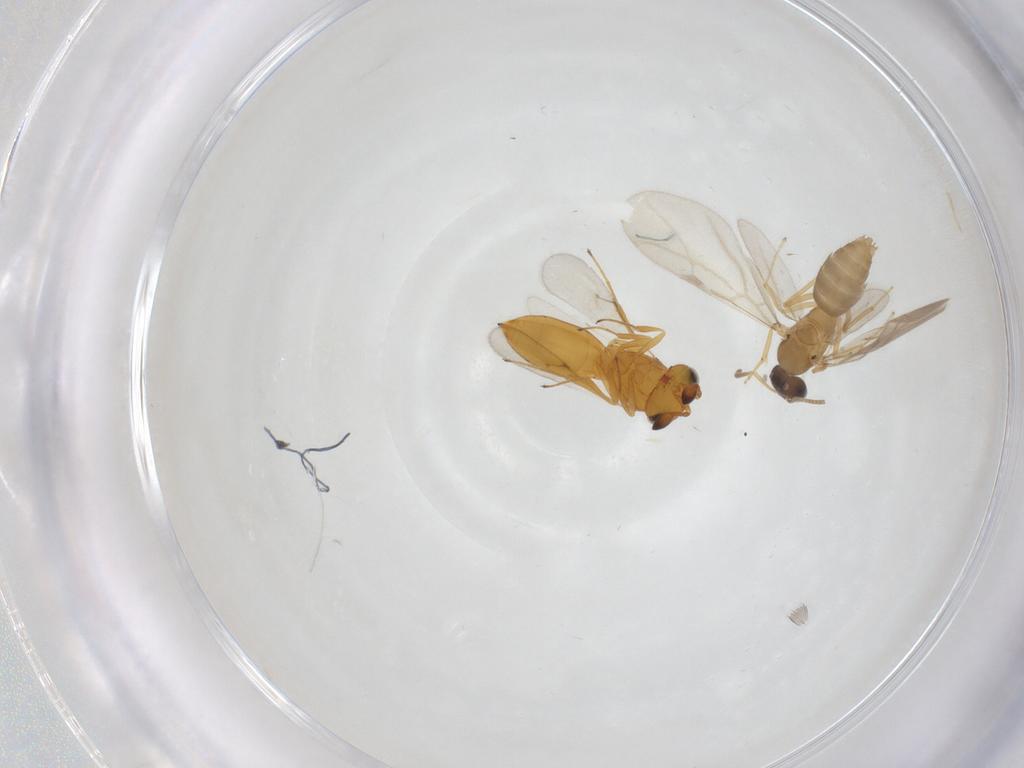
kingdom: Animalia
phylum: Arthropoda
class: Insecta
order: Hymenoptera
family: Formicidae
